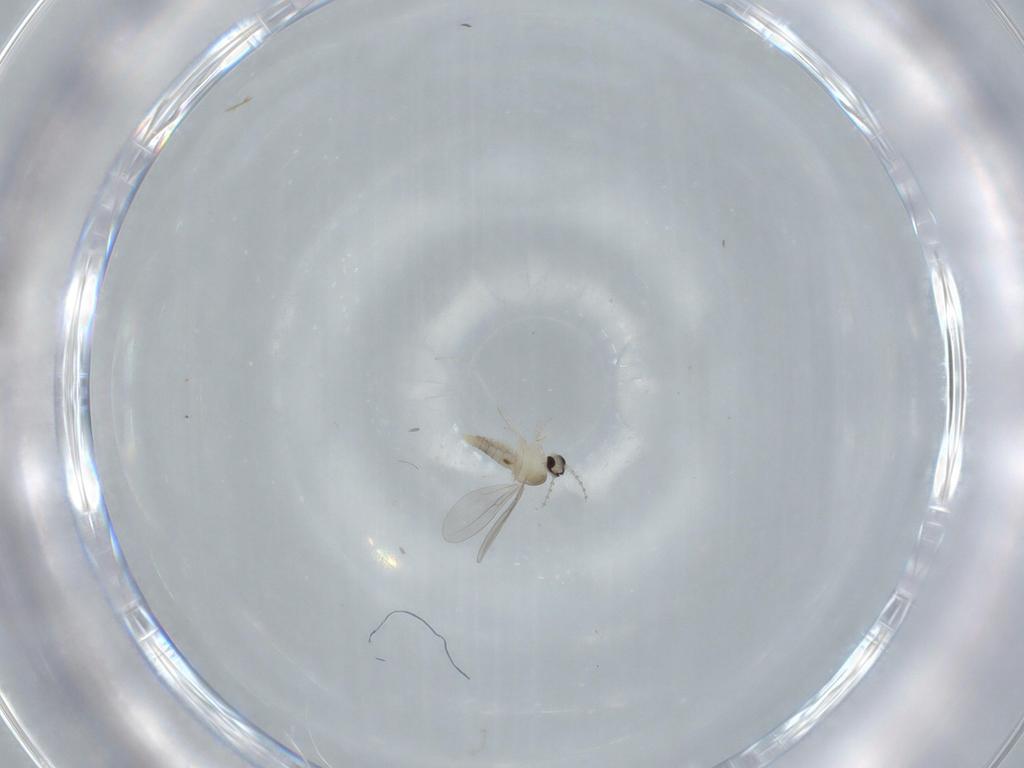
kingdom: Animalia
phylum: Arthropoda
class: Insecta
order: Diptera
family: Cecidomyiidae
